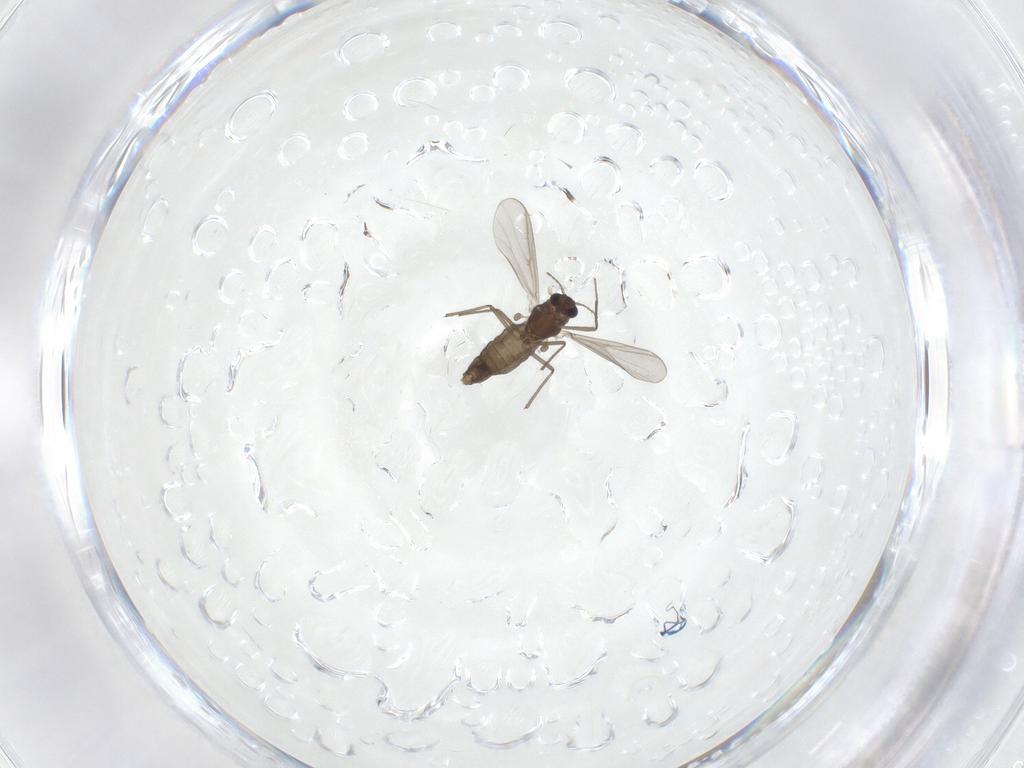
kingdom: Animalia
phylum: Arthropoda
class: Insecta
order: Diptera
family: Chironomidae
